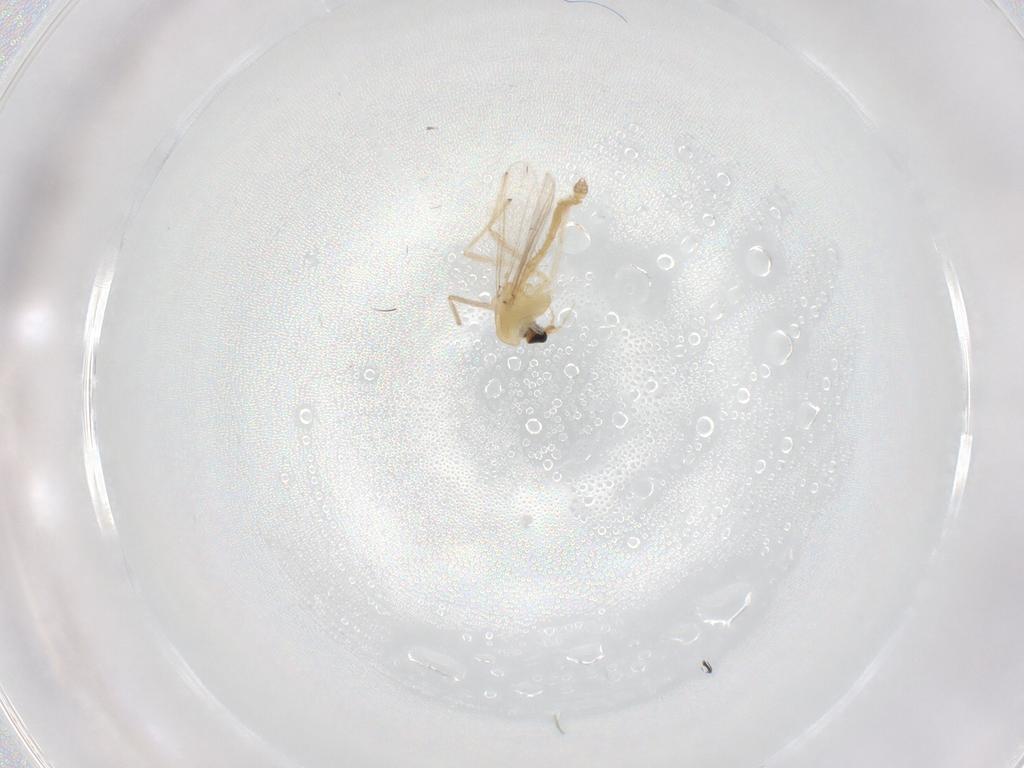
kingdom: Animalia
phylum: Arthropoda
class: Insecta
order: Diptera
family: Chironomidae
